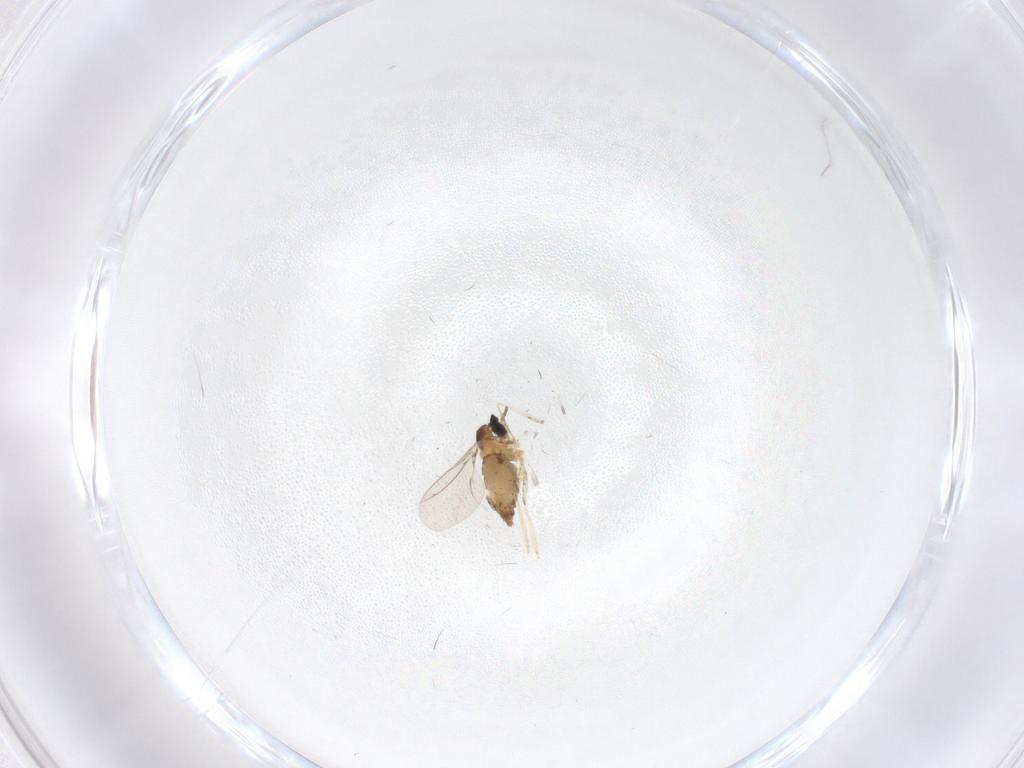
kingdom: Animalia
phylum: Arthropoda
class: Insecta
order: Diptera
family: Cecidomyiidae
